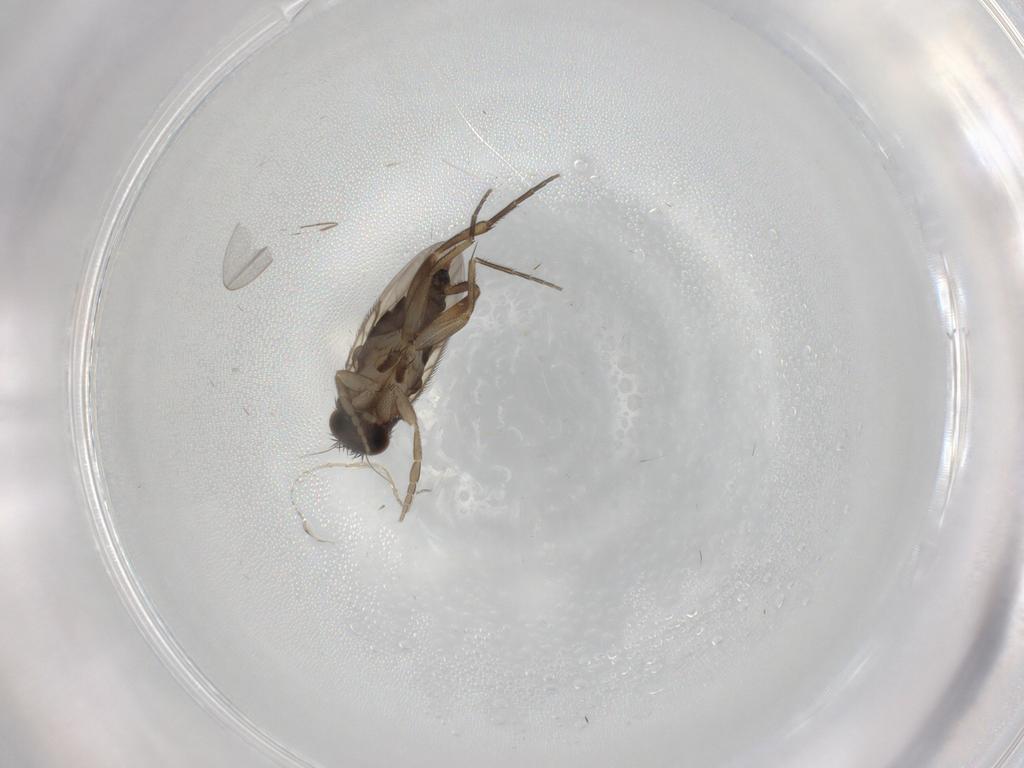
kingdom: Animalia
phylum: Arthropoda
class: Insecta
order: Diptera
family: Phoridae
